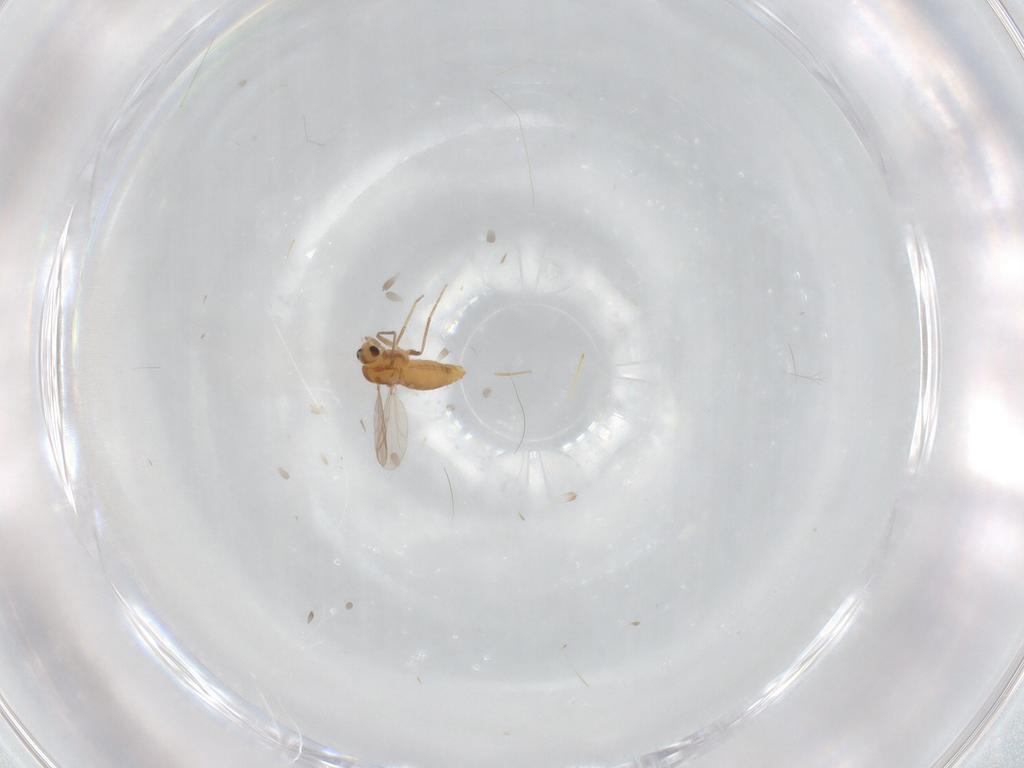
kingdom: Animalia
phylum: Arthropoda
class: Insecta
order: Diptera
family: Chironomidae
